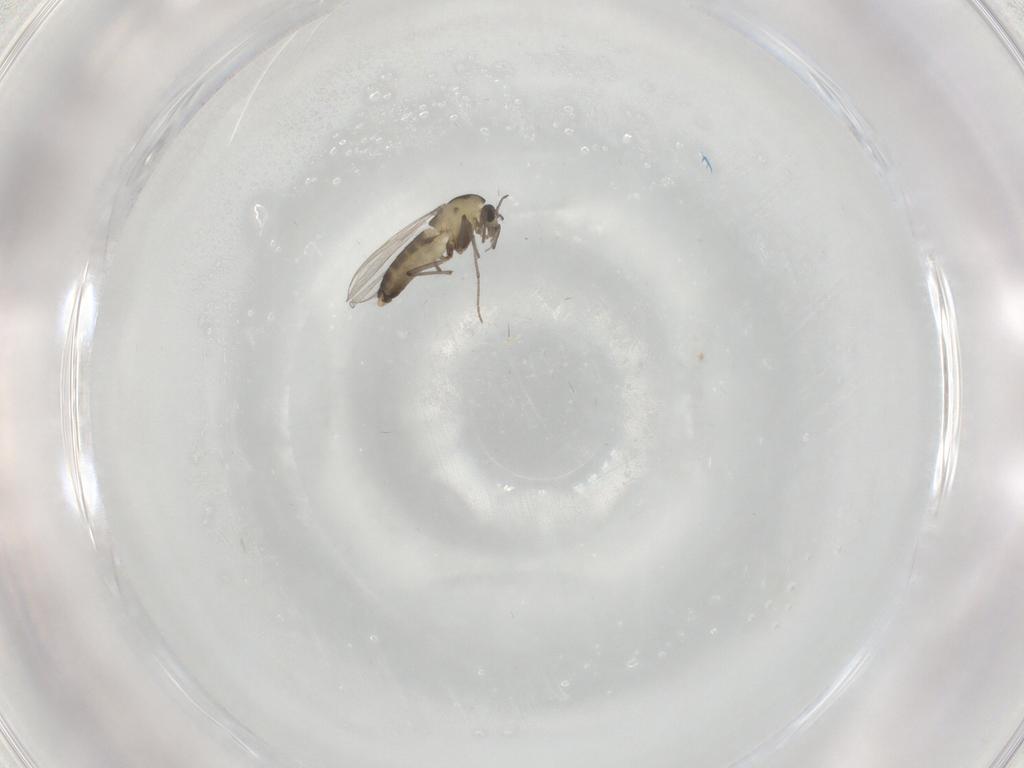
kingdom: Animalia
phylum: Arthropoda
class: Insecta
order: Diptera
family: Chironomidae
